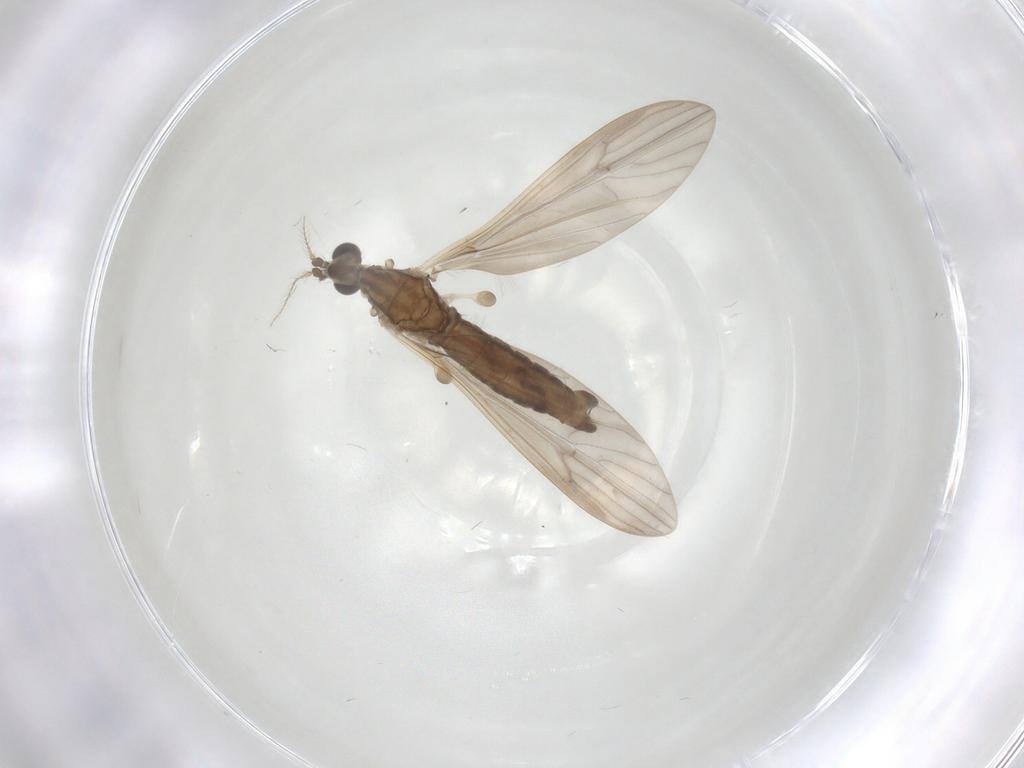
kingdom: Animalia
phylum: Arthropoda
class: Insecta
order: Diptera
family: Limoniidae
